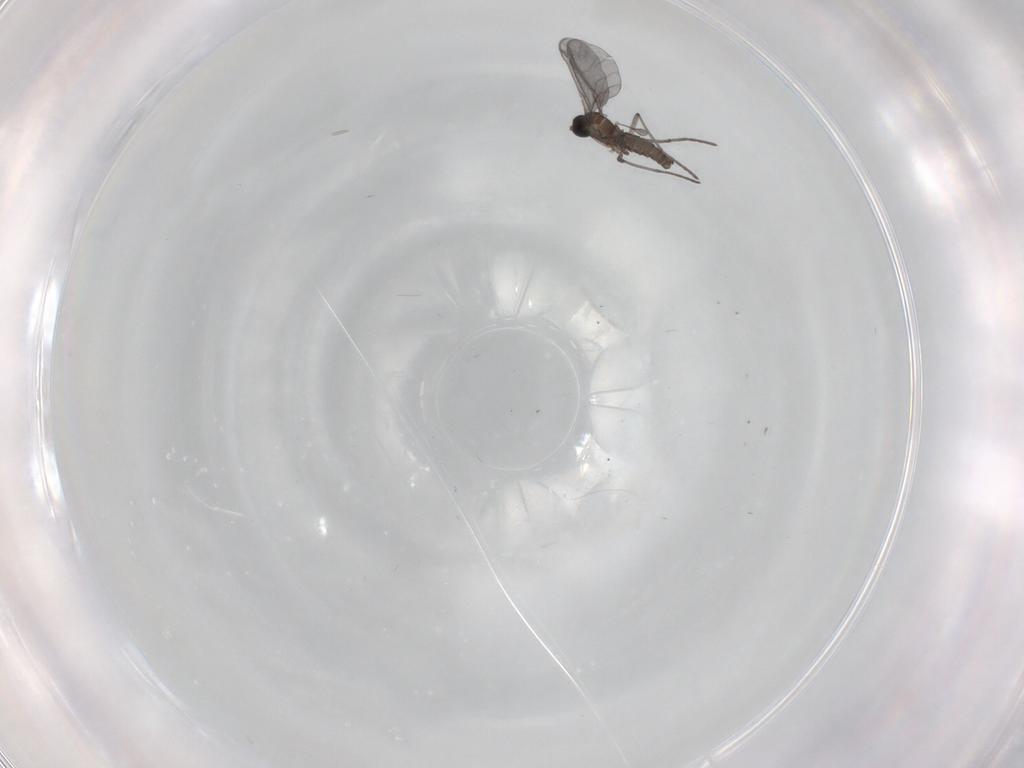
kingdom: Animalia
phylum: Arthropoda
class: Insecta
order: Diptera
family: Sciaridae
